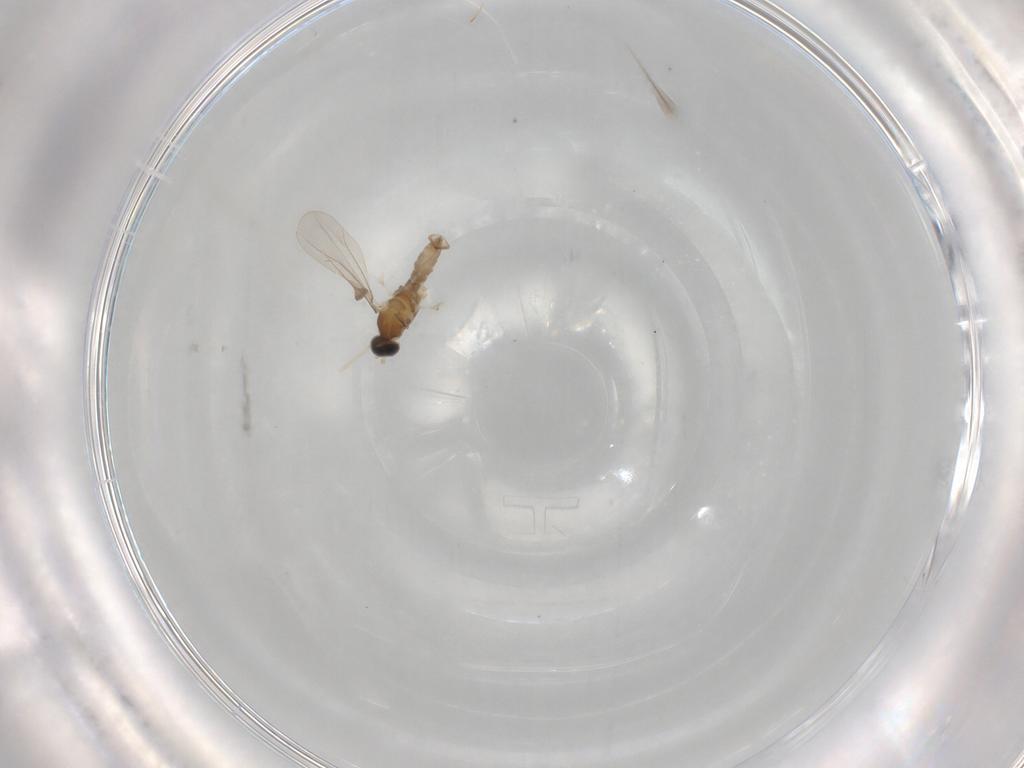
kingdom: Animalia
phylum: Arthropoda
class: Insecta
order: Diptera
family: Cecidomyiidae
